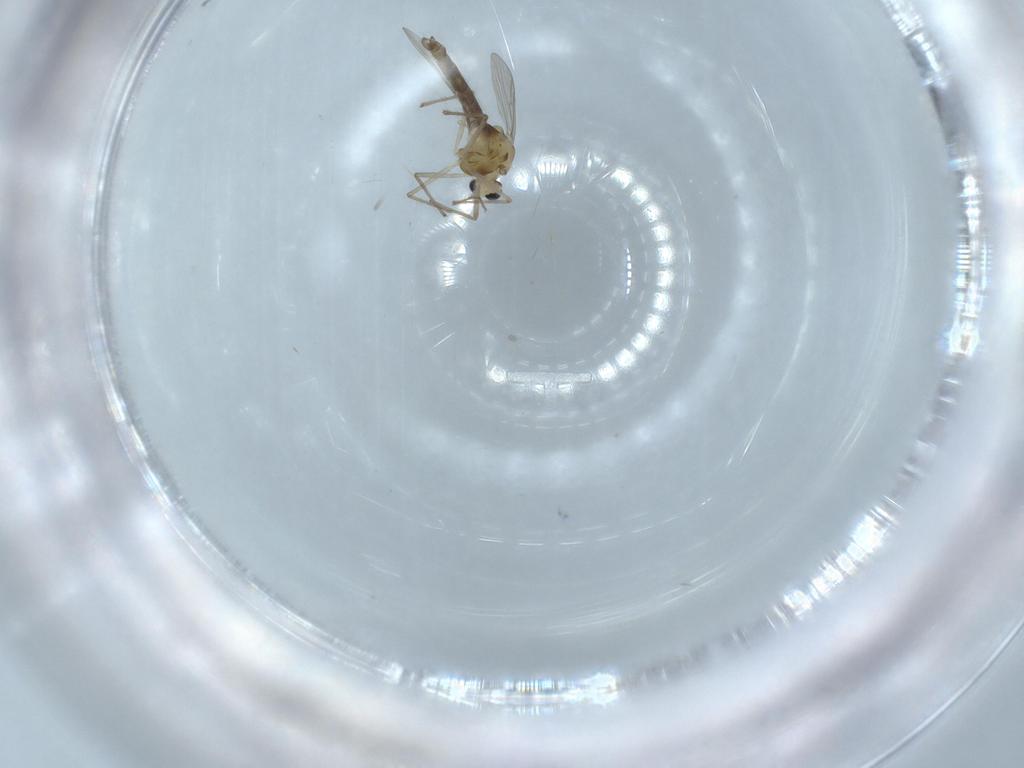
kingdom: Animalia
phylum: Arthropoda
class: Insecta
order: Diptera
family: Chironomidae
